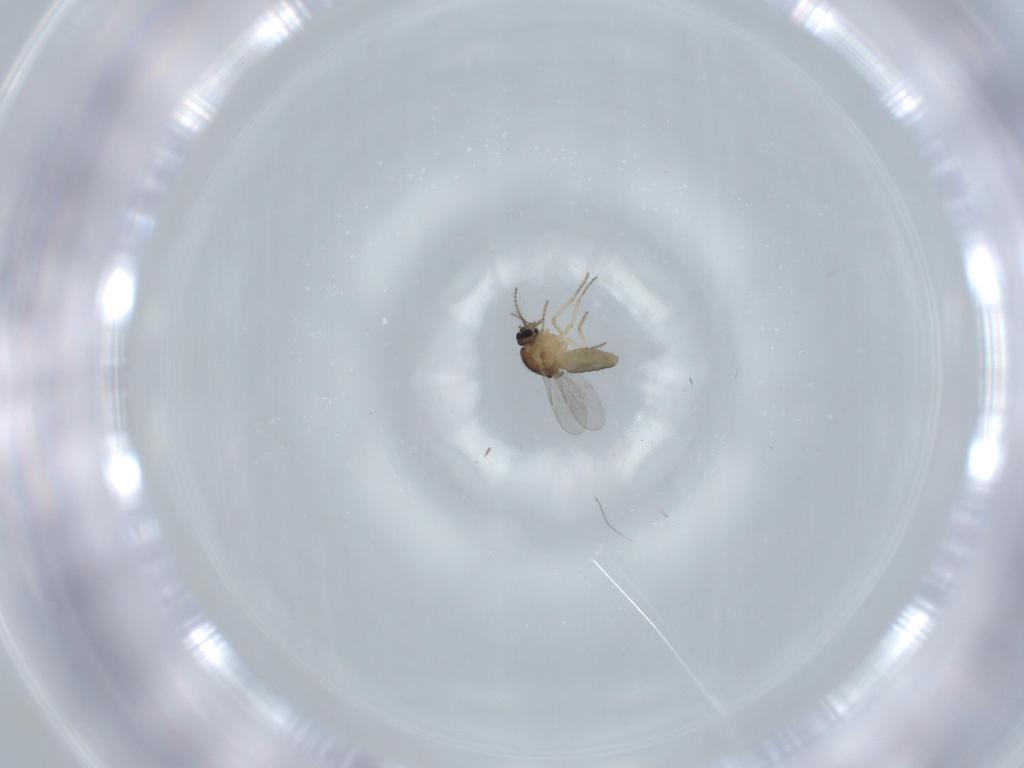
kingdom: Animalia
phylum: Arthropoda
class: Insecta
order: Diptera
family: Ceratopogonidae
